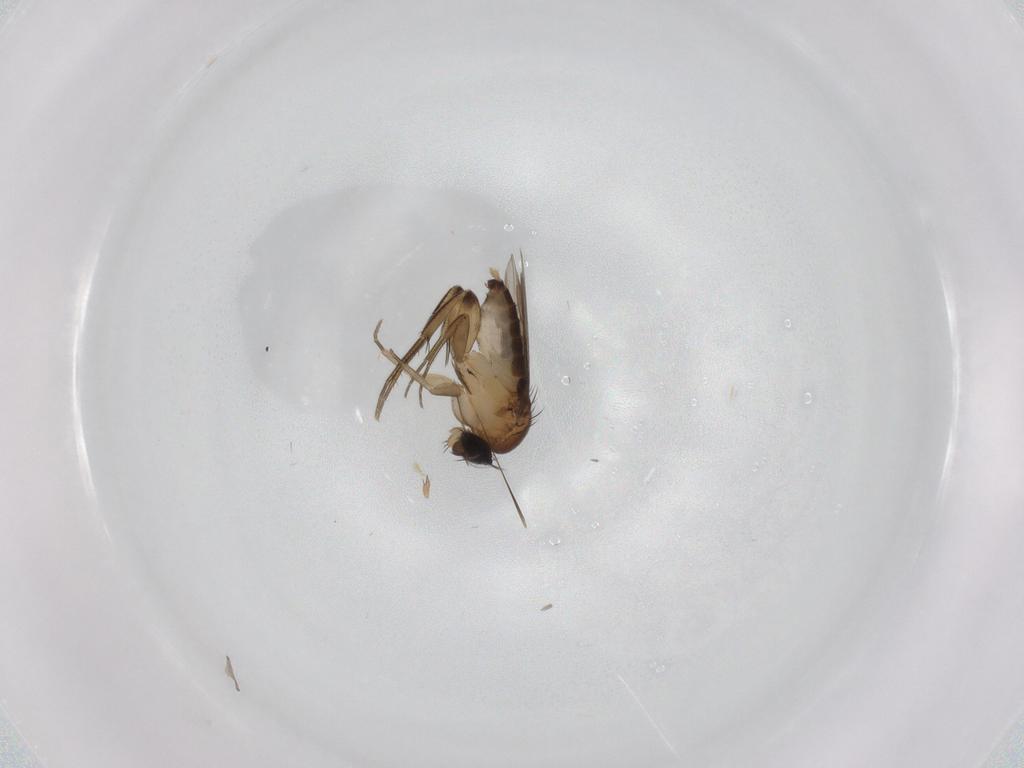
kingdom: Animalia
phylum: Arthropoda
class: Insecta
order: Diptera
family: Phoridae
